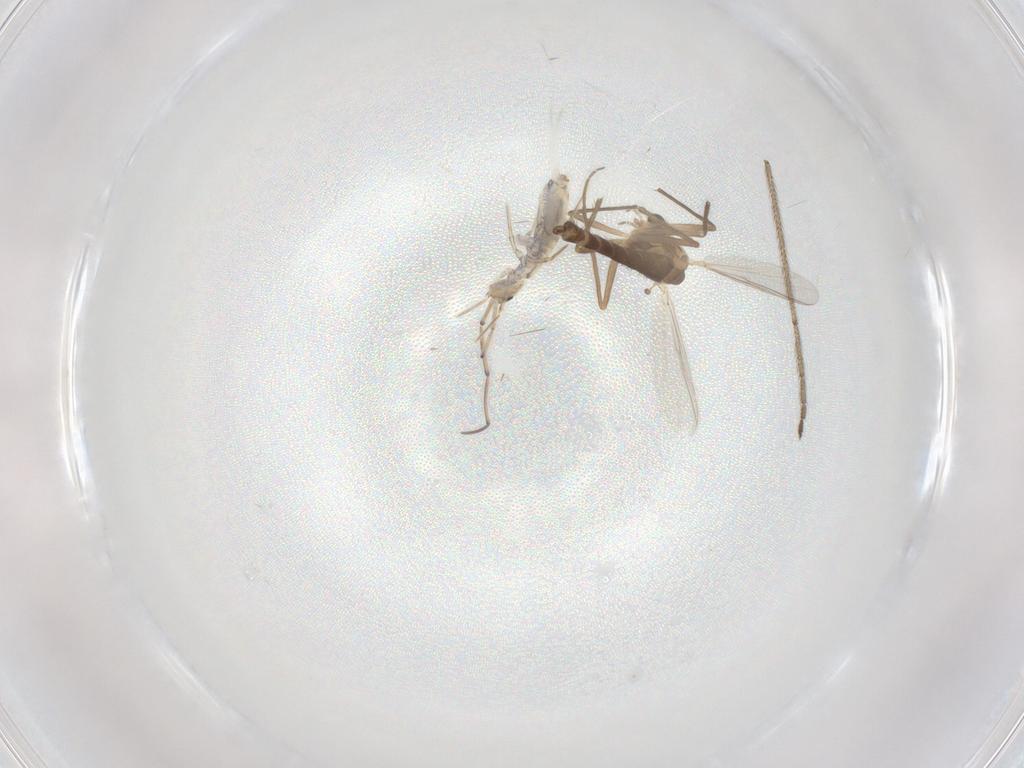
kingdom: Animalia
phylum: Arthropoda
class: Insecta
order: Diptera
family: Chironomidae
